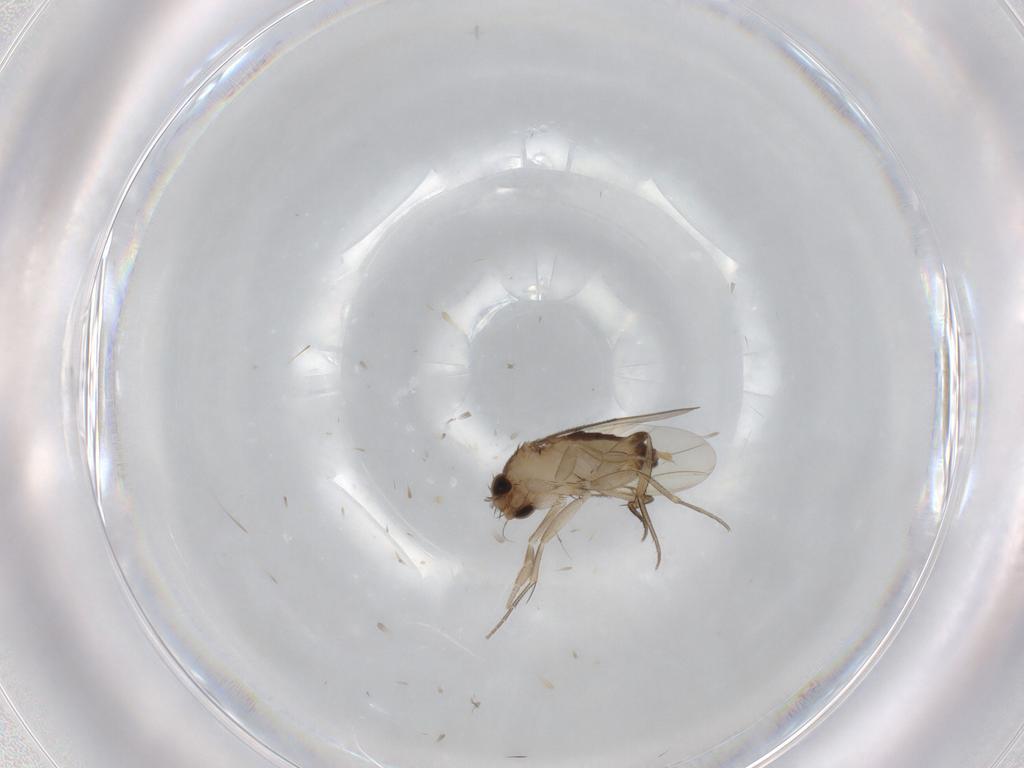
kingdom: Animalia
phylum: Arthropoda
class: Insecta
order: Diptera
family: Phoridae
